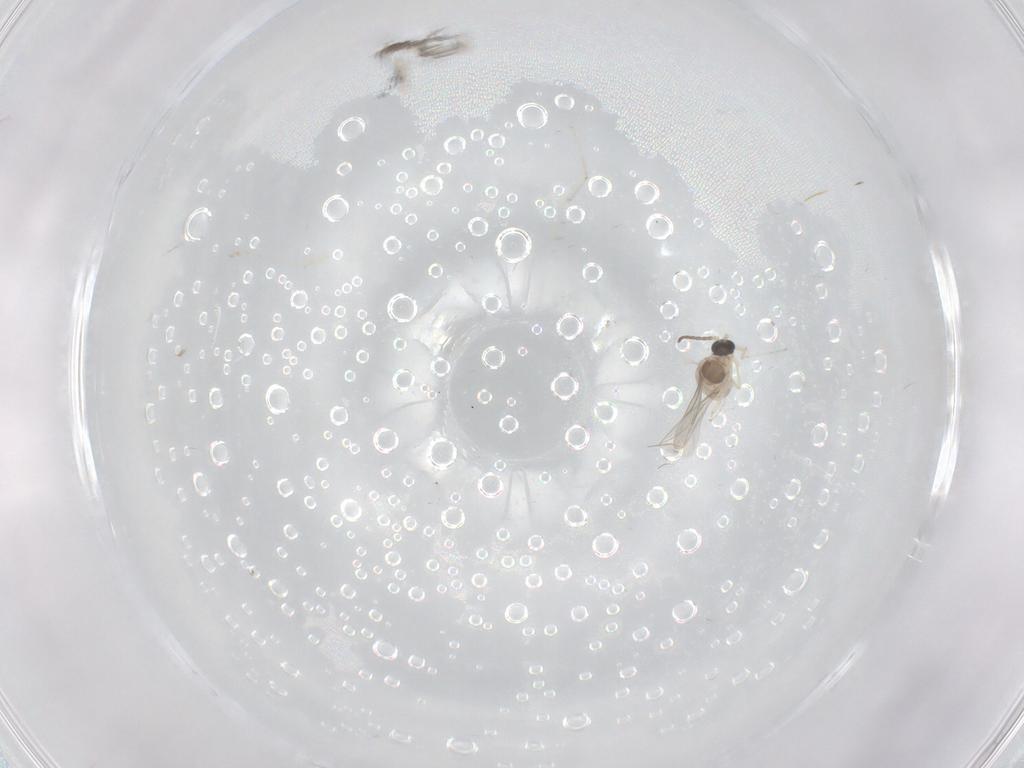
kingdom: Animalia
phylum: Arthropoda
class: Insecta
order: Diptera
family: Cecidomyiidae
